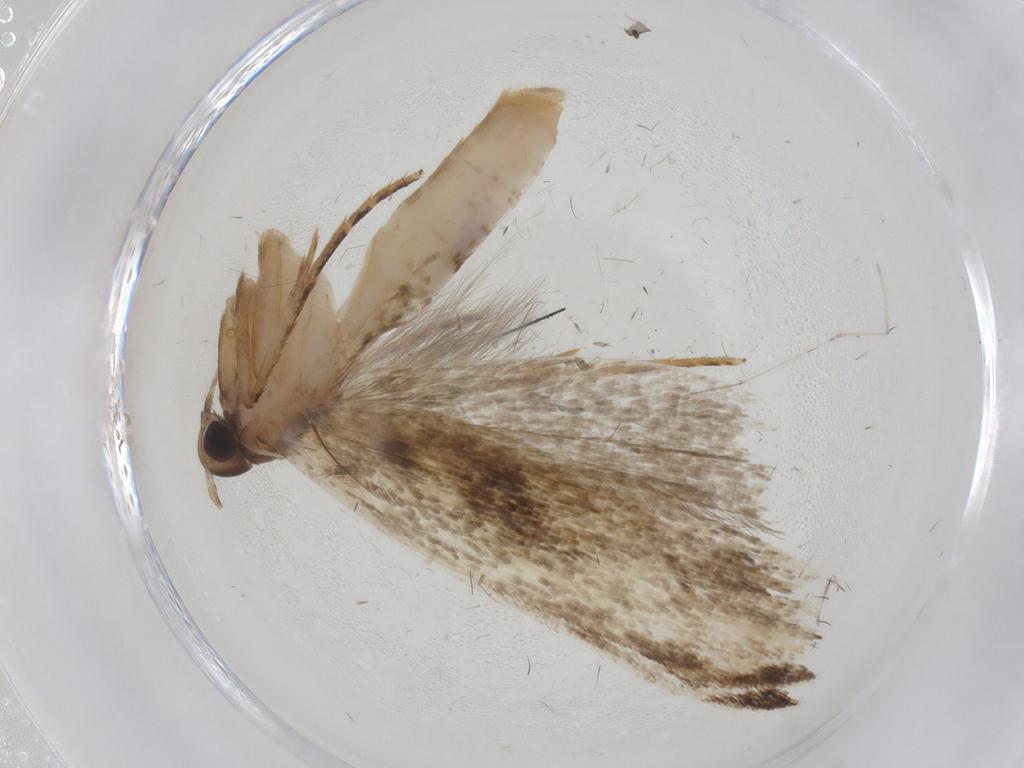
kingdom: Animalia
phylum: Arthropoda
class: Insecta
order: Lepidoptera
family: Gelechiidae
